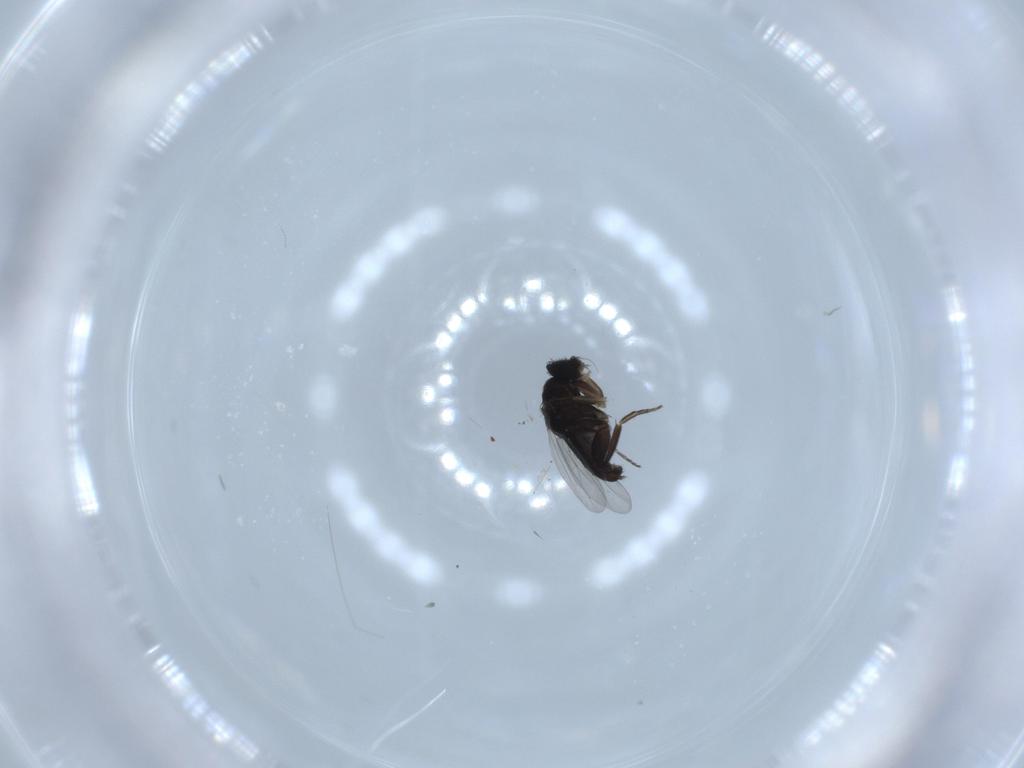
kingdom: Animalia
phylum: Arthropoda
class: Insecta
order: Diptera
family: Phoridae
